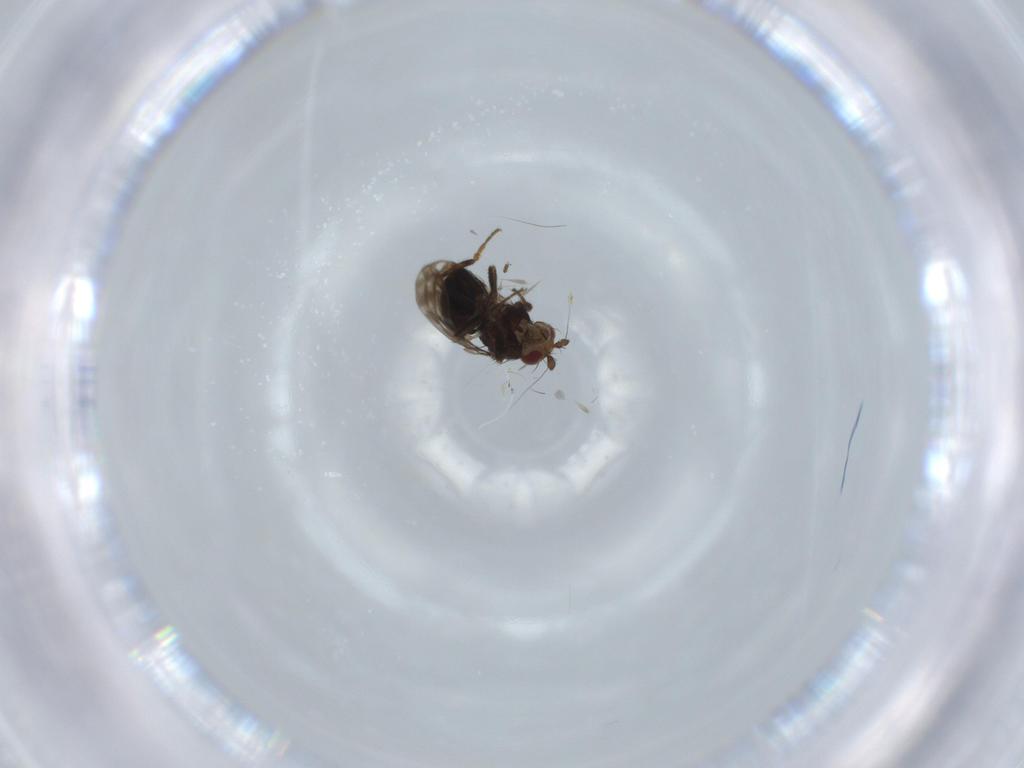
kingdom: Animalia
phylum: Arthropoda
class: Insecta
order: Diptera
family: Sphaeroceridae
